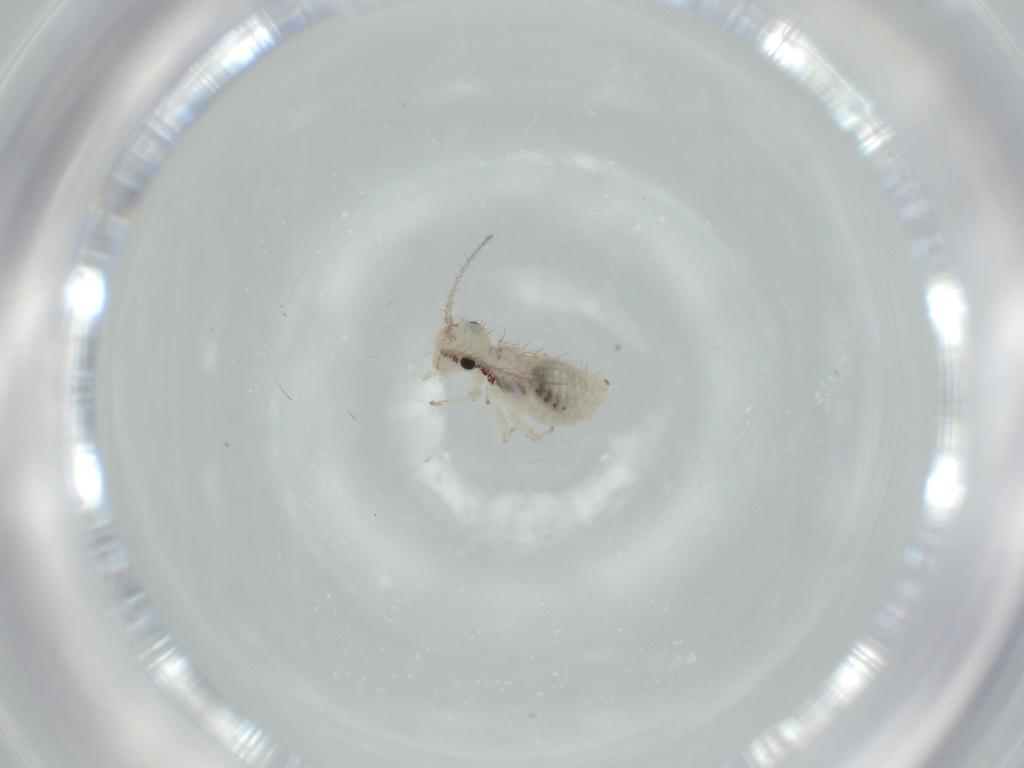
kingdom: Animalia
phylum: Arthropoda
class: Insecta
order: Psocodea
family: Pseudocaeciliidae
